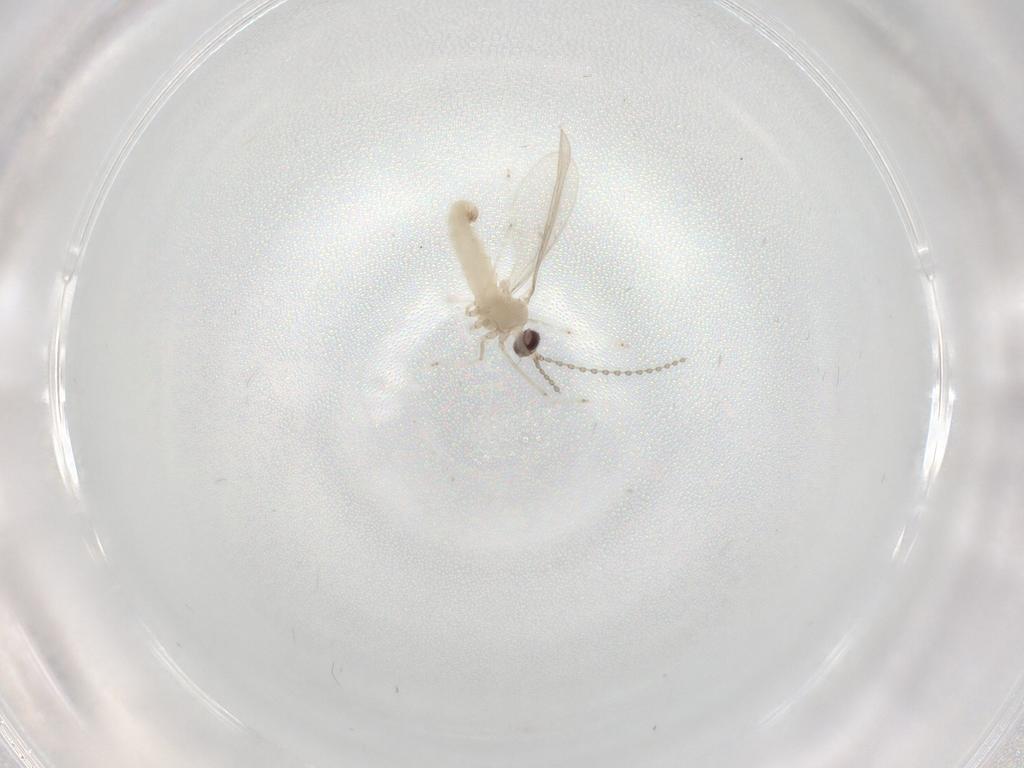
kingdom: Animalia
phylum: Arthropoda
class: Insecta
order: Diptera
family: Cecidomyiidae
